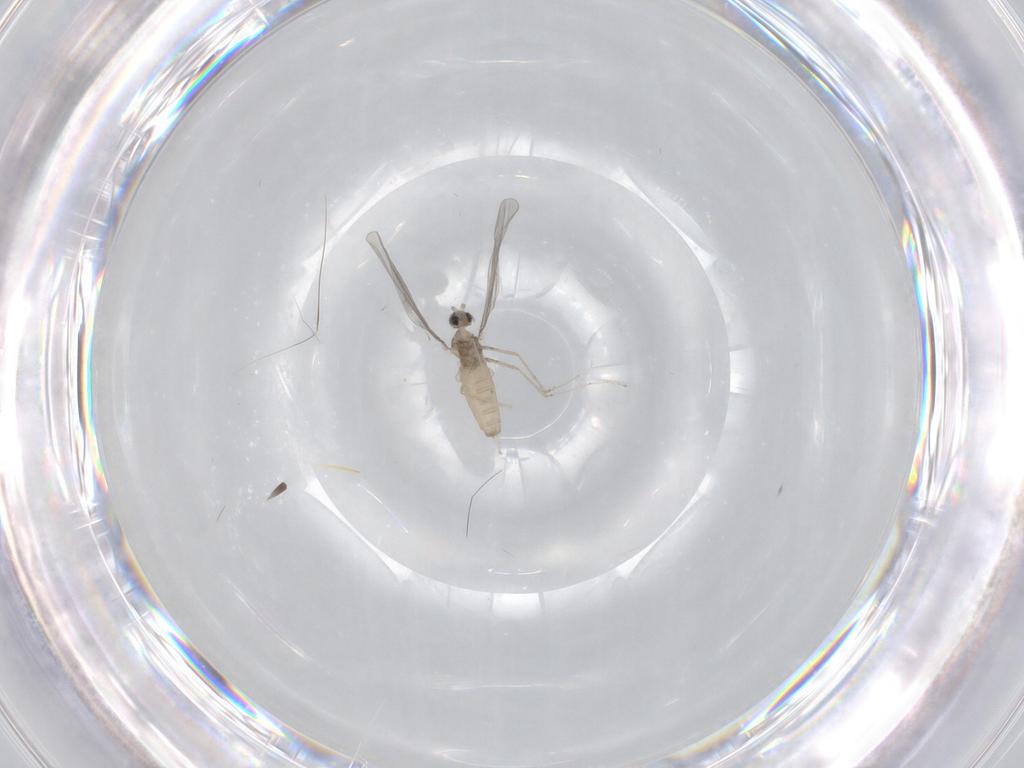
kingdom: Animalia
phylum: Arthropoda
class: Insecta
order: Diptera
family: Cecidomyiidae
